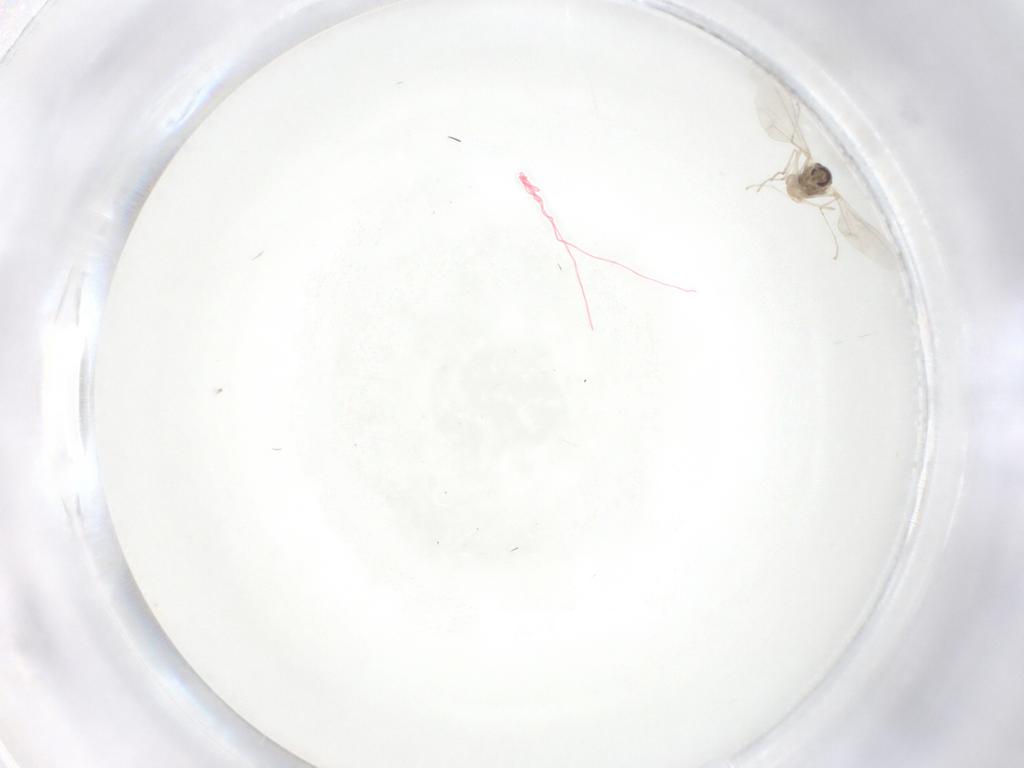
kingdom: Animalia
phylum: Arthropoda
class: Insecta
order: Diptera
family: Cecidomyiidae
